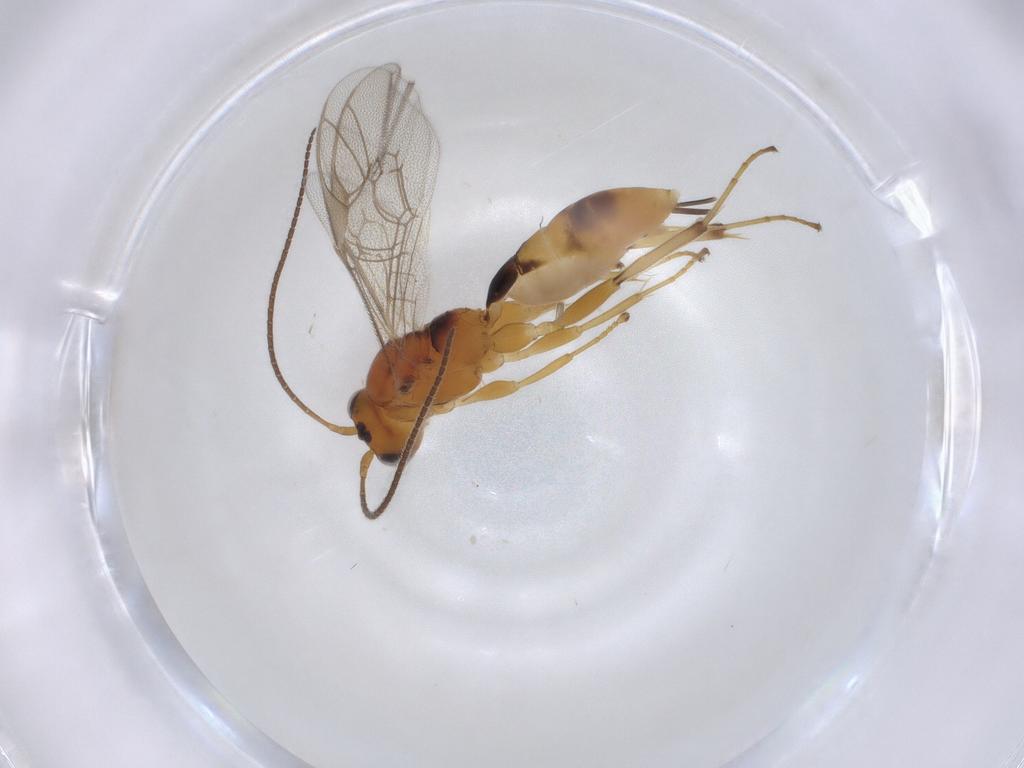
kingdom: Animalia
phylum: Arthropoda
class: Insecta
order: Hymenoptera
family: Ichneumonidae
